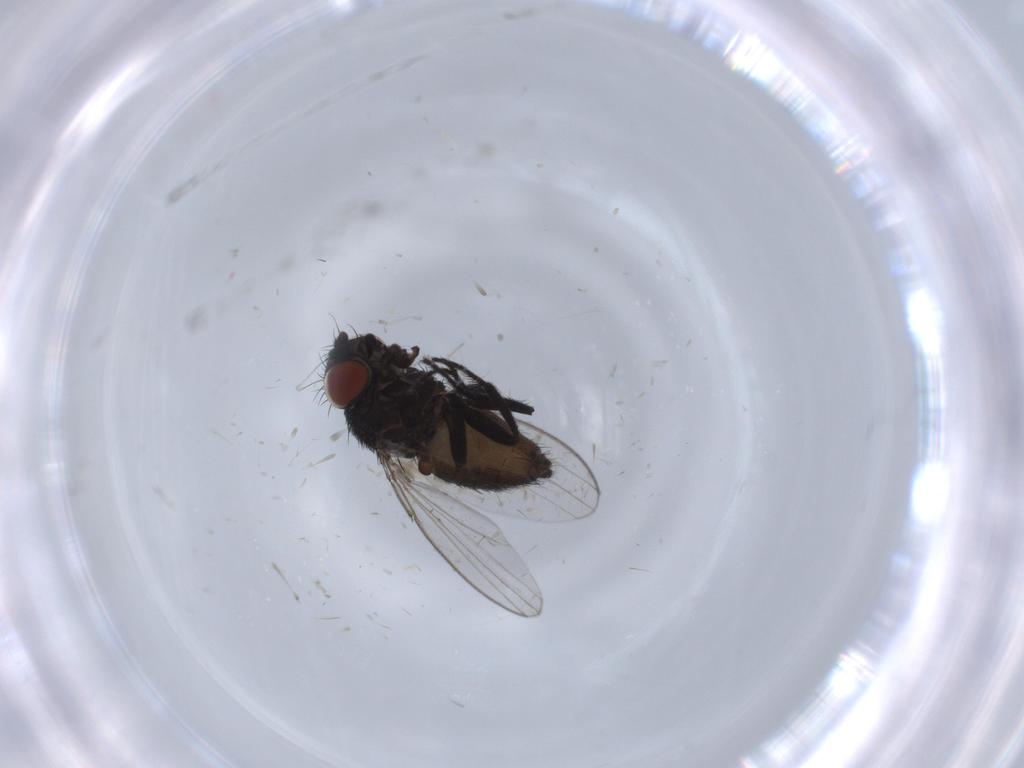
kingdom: Animalia
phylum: Arthropoda
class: Insecta
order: Diptera
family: Milichiidae
